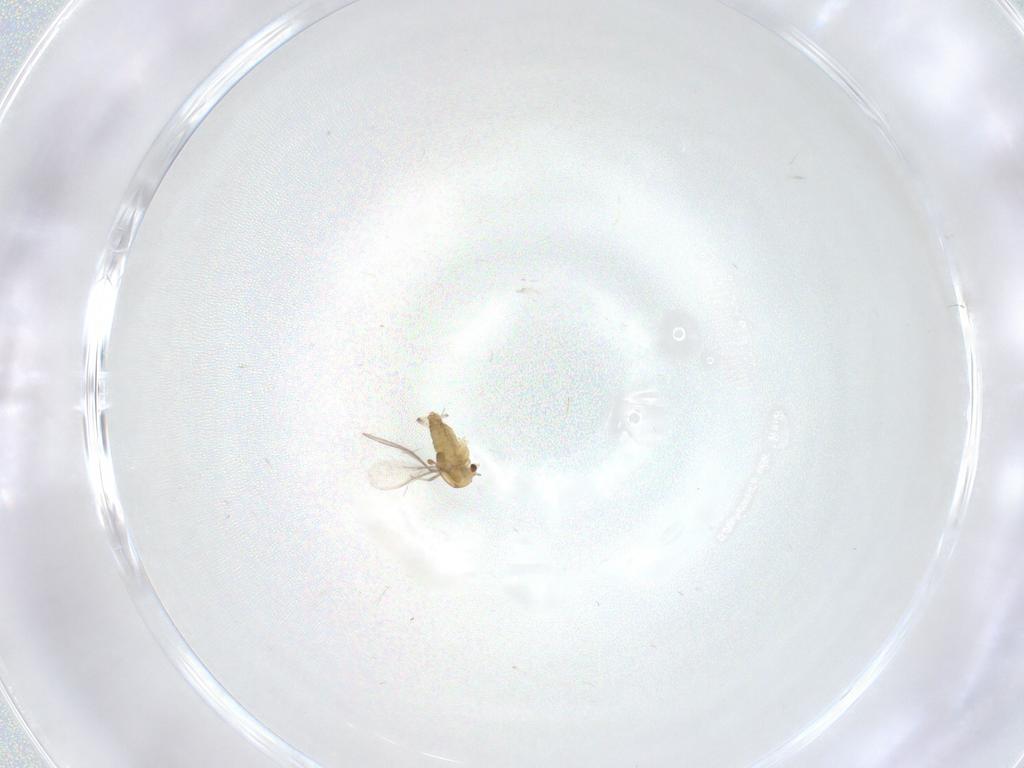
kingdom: Animalia
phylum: Arthropoda
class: Insecta
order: Diptera
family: Chironomidae
